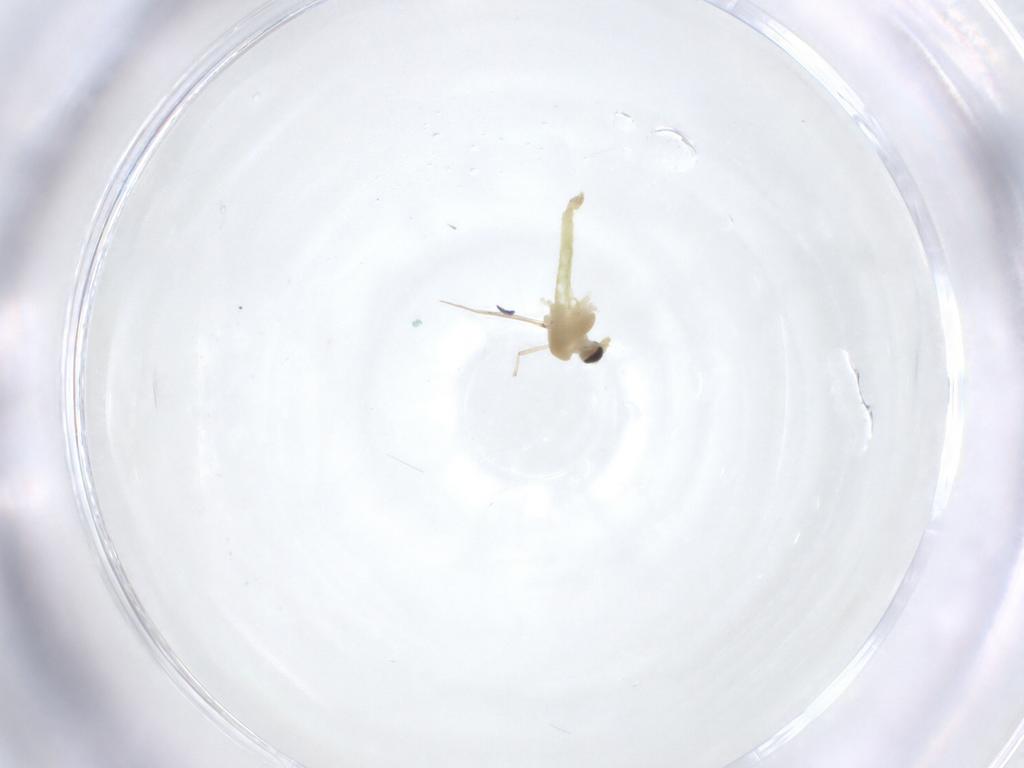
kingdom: Animalia
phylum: Arthropoda
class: Insecta
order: Diptera
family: Chironomidae
